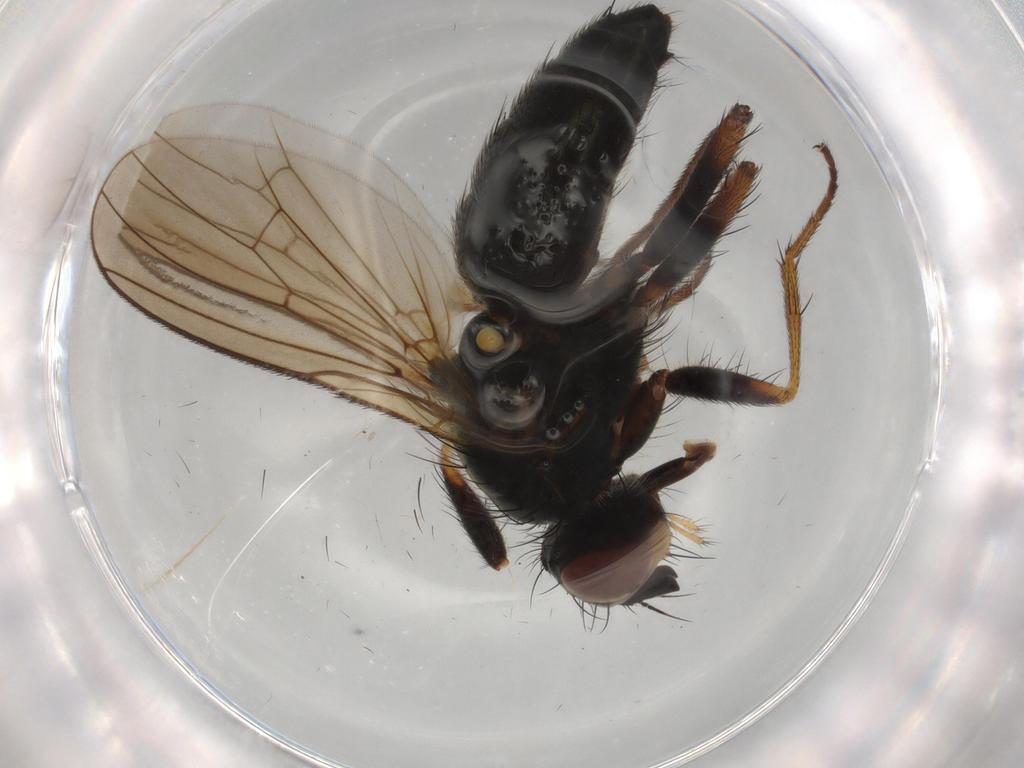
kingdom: Animalia
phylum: Arthropoda
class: Insecta
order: Diptera
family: Scathophagidae
